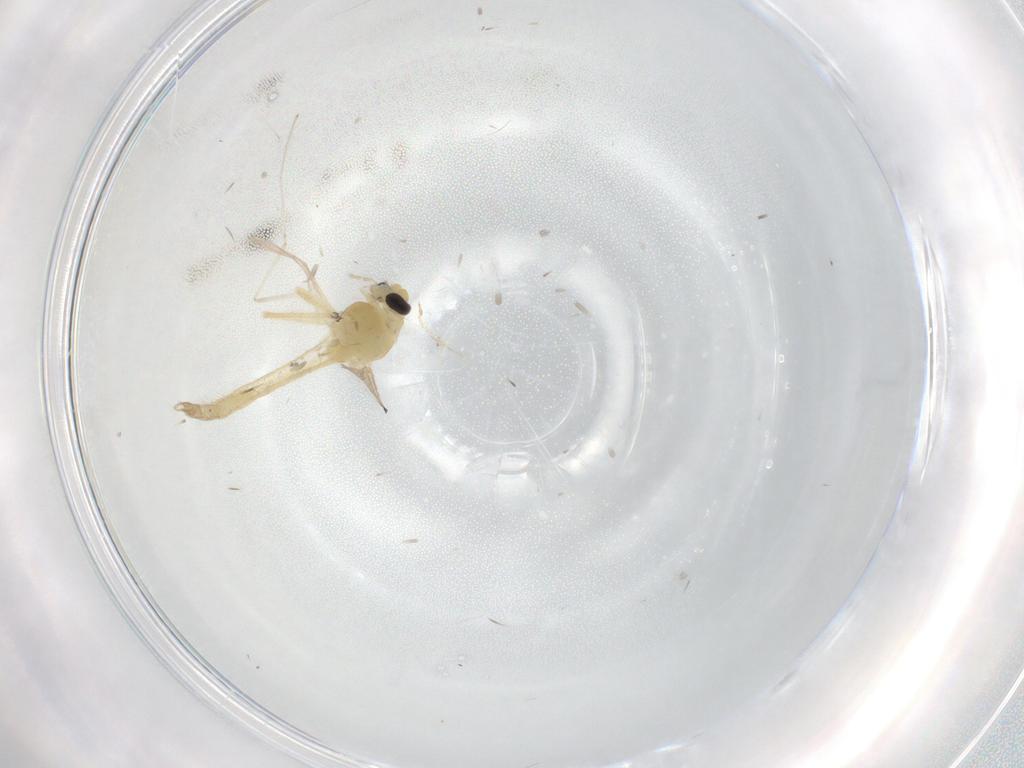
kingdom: Animalia
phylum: Arthropoda
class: Insecta
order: Diptera
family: Chironomidae
